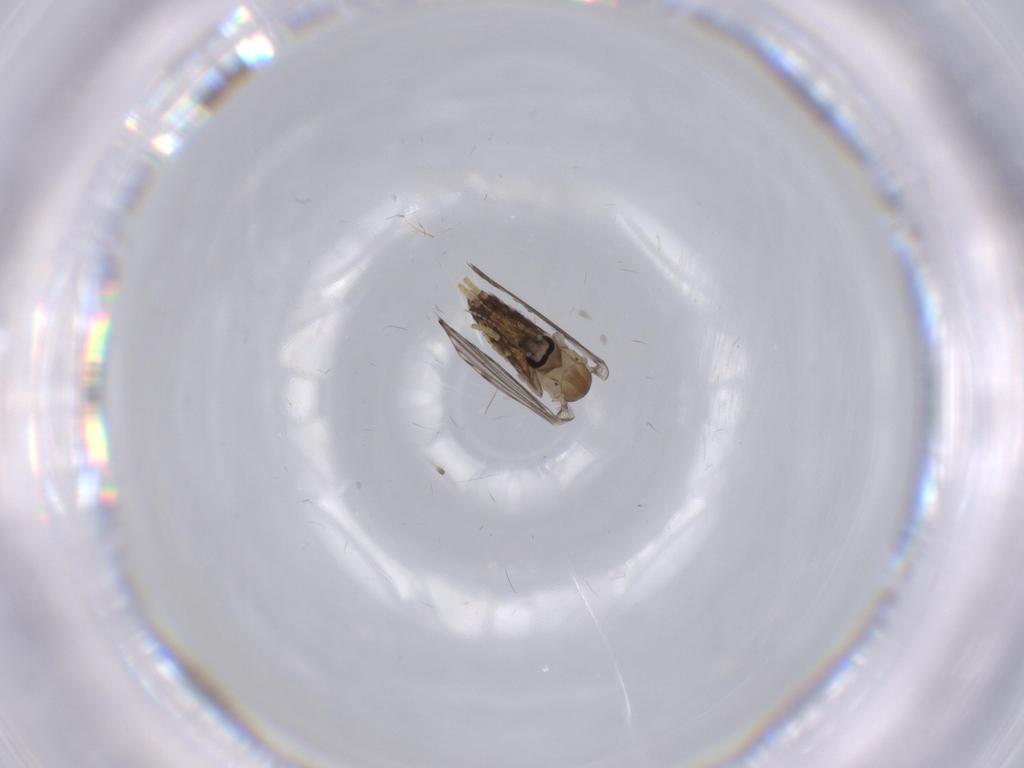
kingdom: Animalia
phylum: Arthropoda
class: Insecta
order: Diptera
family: Psychodidae
